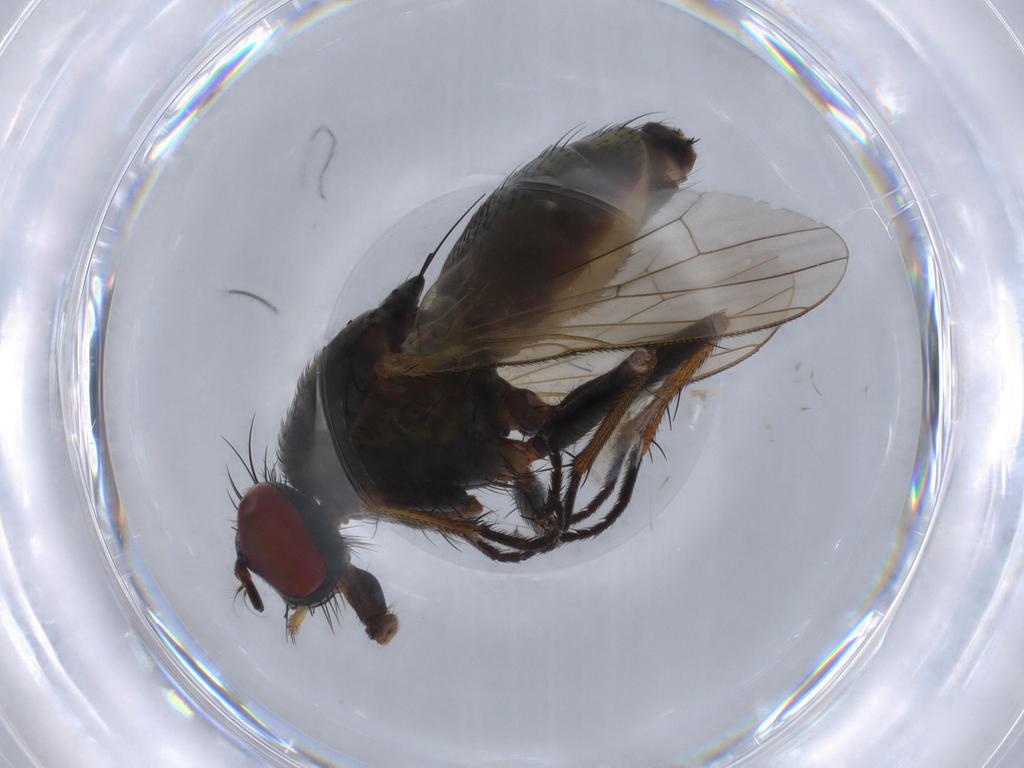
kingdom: Animalia
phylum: Arthropoda
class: Insecta
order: Diptera
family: Muscidae
